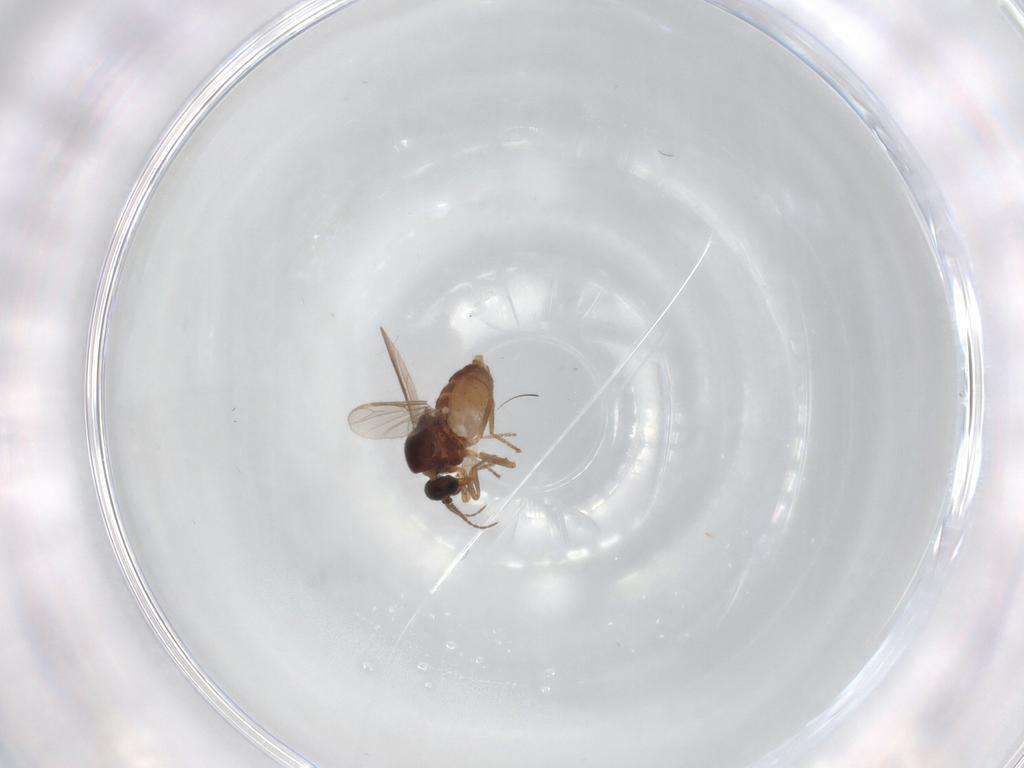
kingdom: Animalia
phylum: Arthropoda
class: Insecta
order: Diptera
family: Ceratopogonidae
